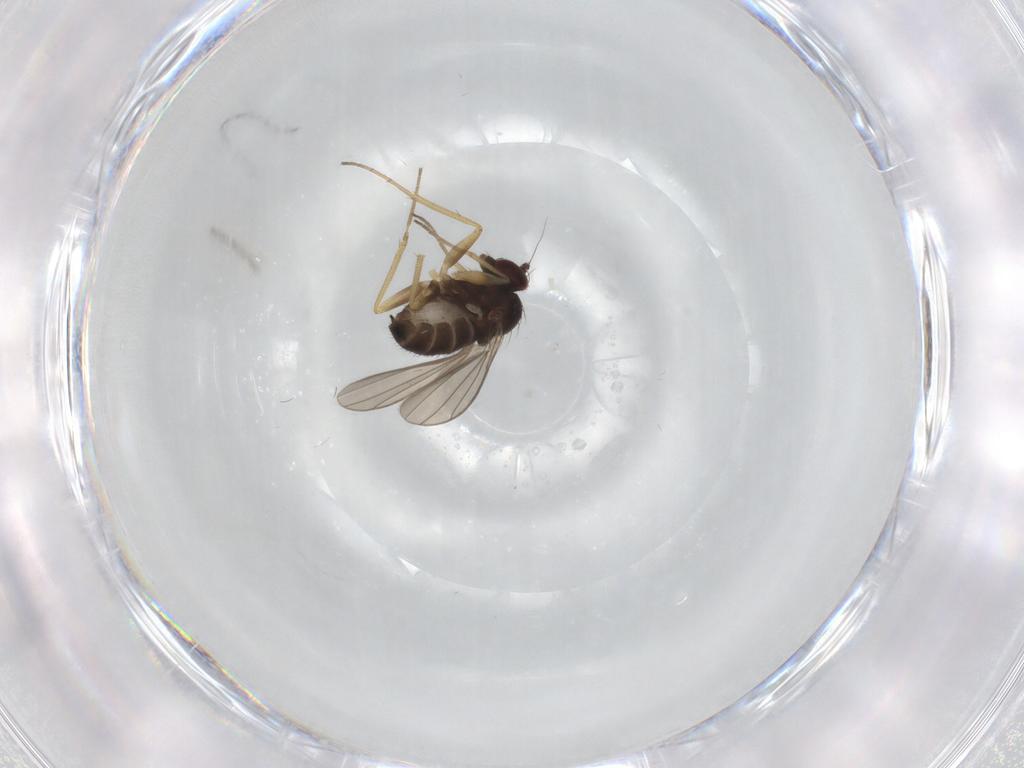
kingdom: Animalia
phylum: Arthropoda
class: Insecta
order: Diptera
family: Dolichopodidae
